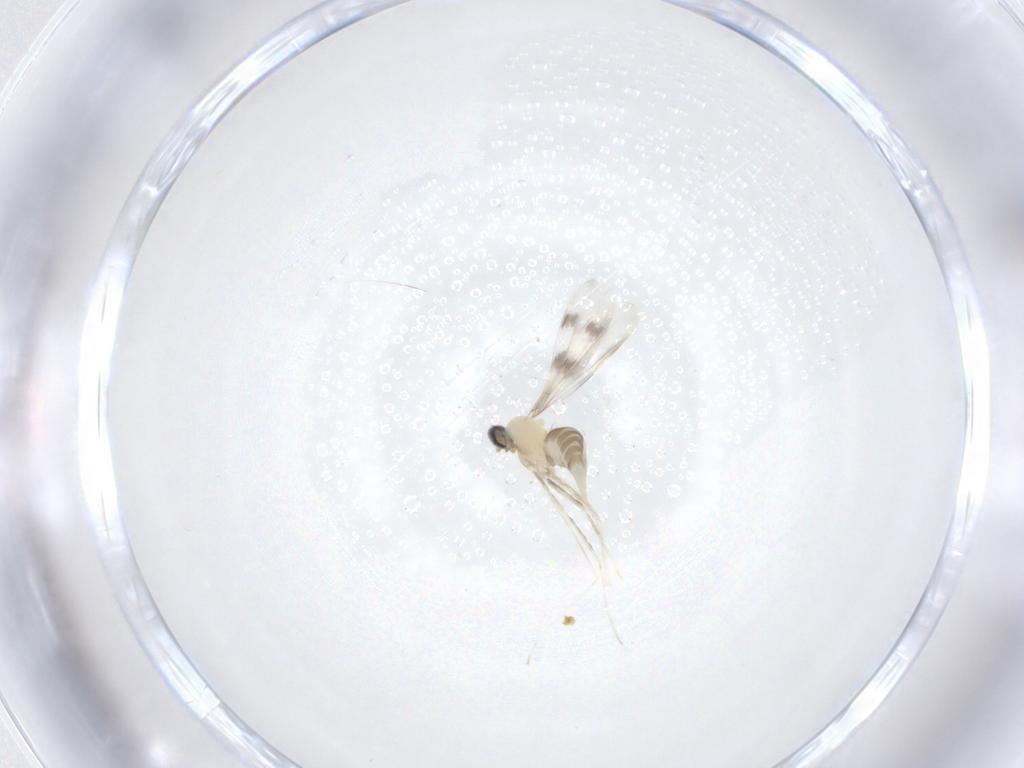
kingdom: Animalia
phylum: Arthropoda
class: Insecta
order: Diptera
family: Cecidomyiidae
